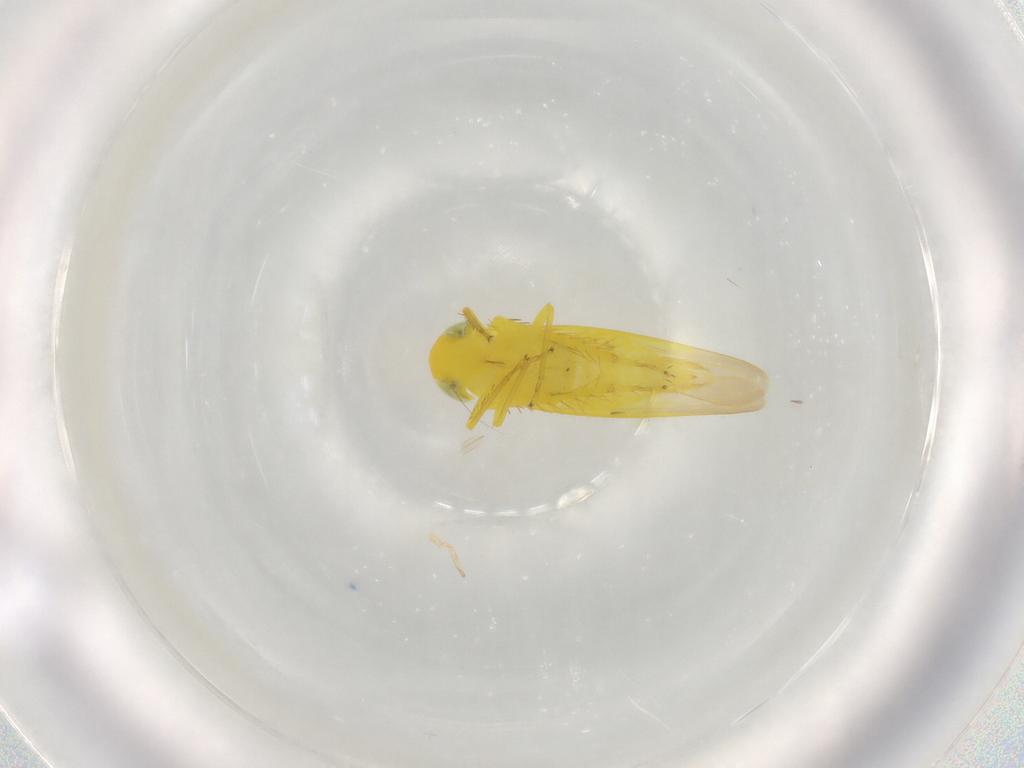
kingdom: Animalia
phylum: Arthropoda
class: Insecta
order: Hemiptera
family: Cicadellidae
